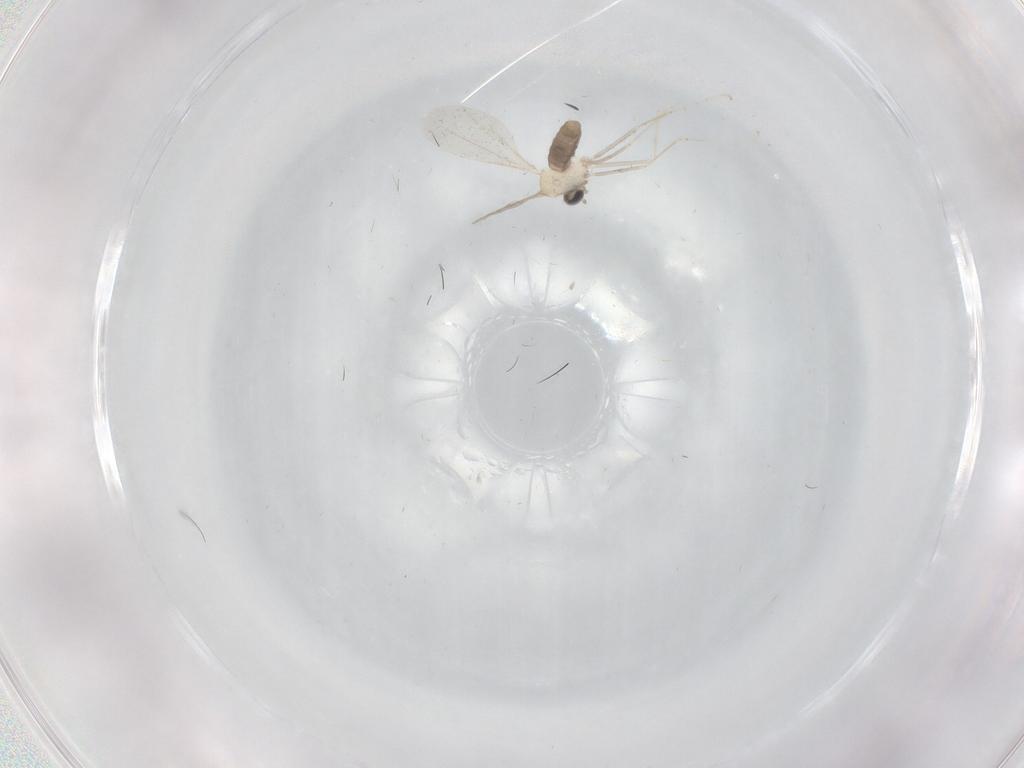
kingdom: Animalia
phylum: Arthropoda
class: Insecta
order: Diptera
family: Cecidomyiidae
